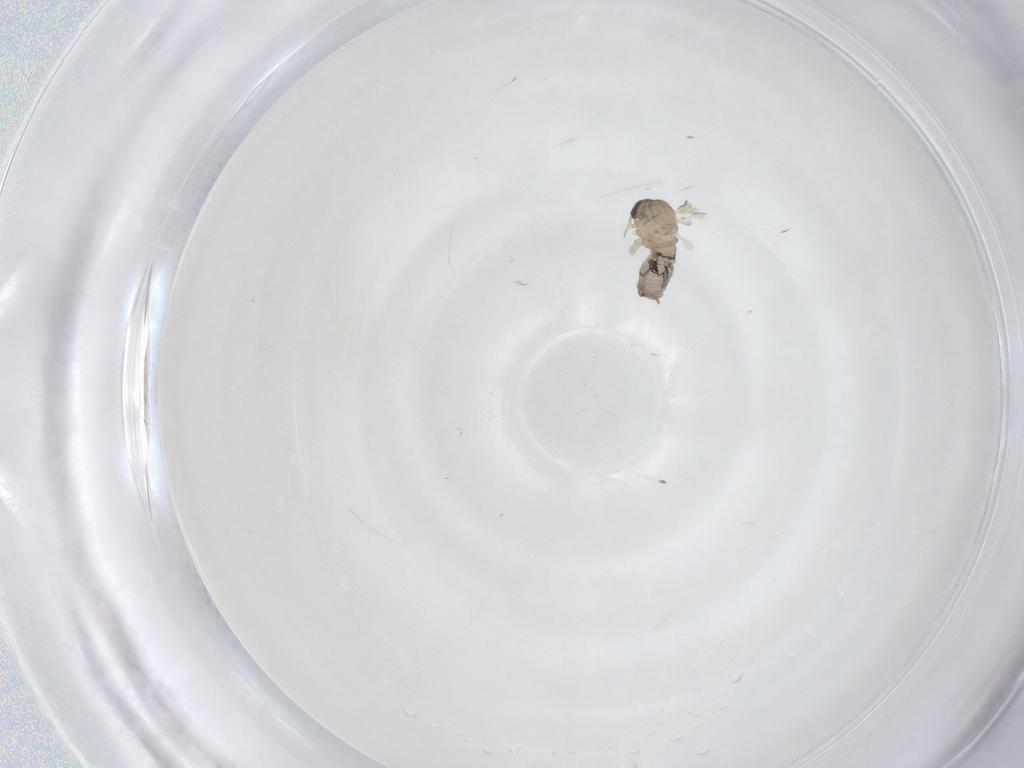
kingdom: Animalia
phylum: Arthropoda
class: Insecta
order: Diptera
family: Psychodidae
